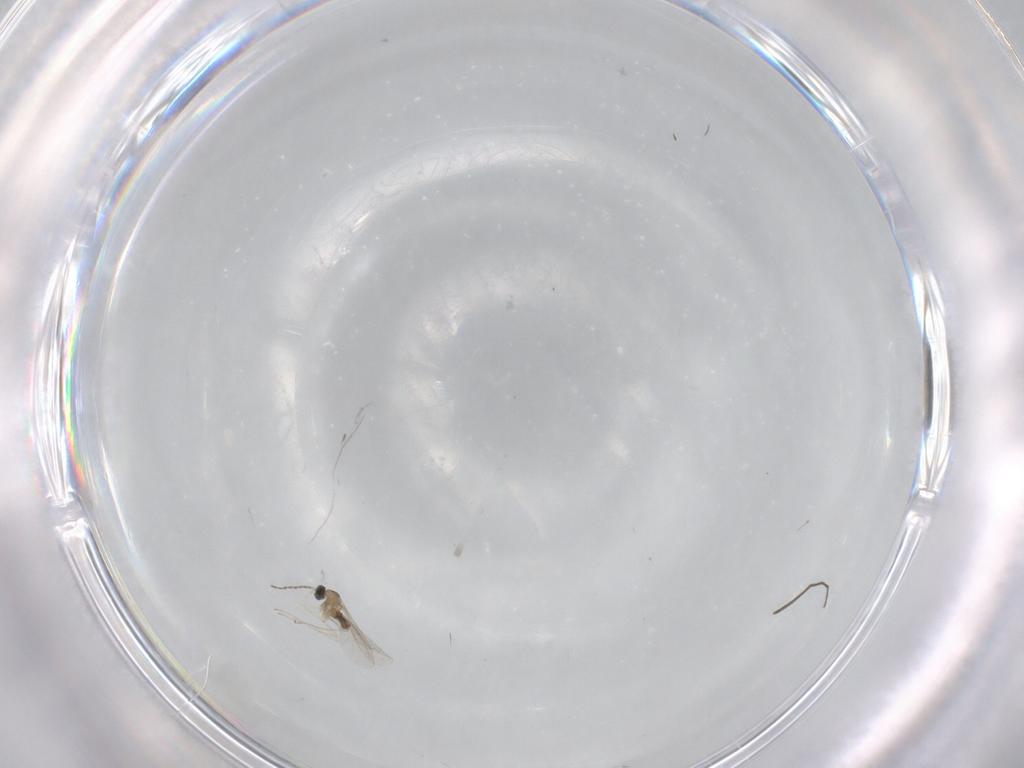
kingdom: Animalia
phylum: Arthropoda
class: Insecta
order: Diptera
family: Cecidomyiidae
